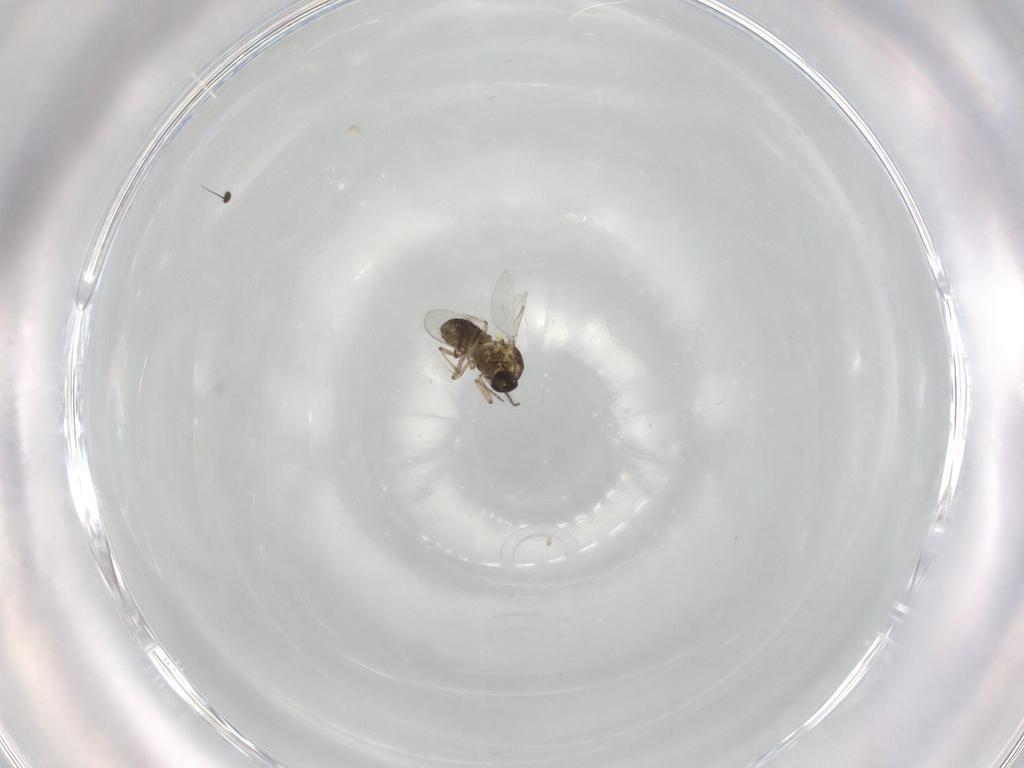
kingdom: Animalia
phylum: Arthropoda
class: Insecta
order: Diptera
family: Ceratopogonidae
